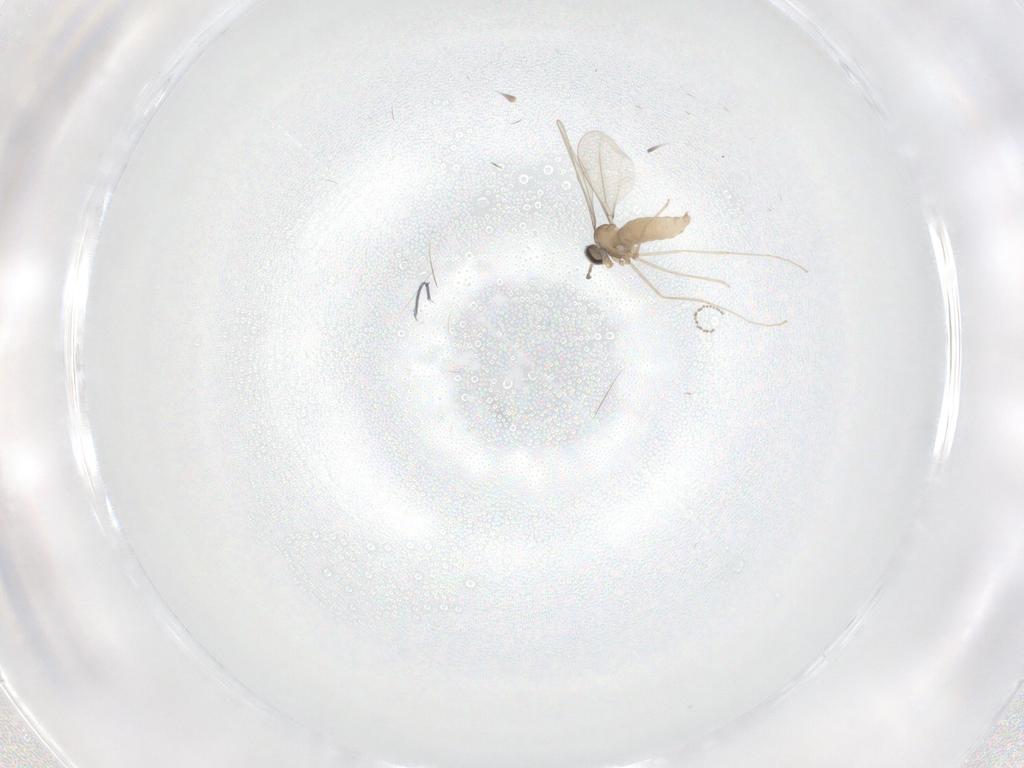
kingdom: Animalia
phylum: Arthropoda
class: Insecta
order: Diptera
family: Cecidomyiidae
